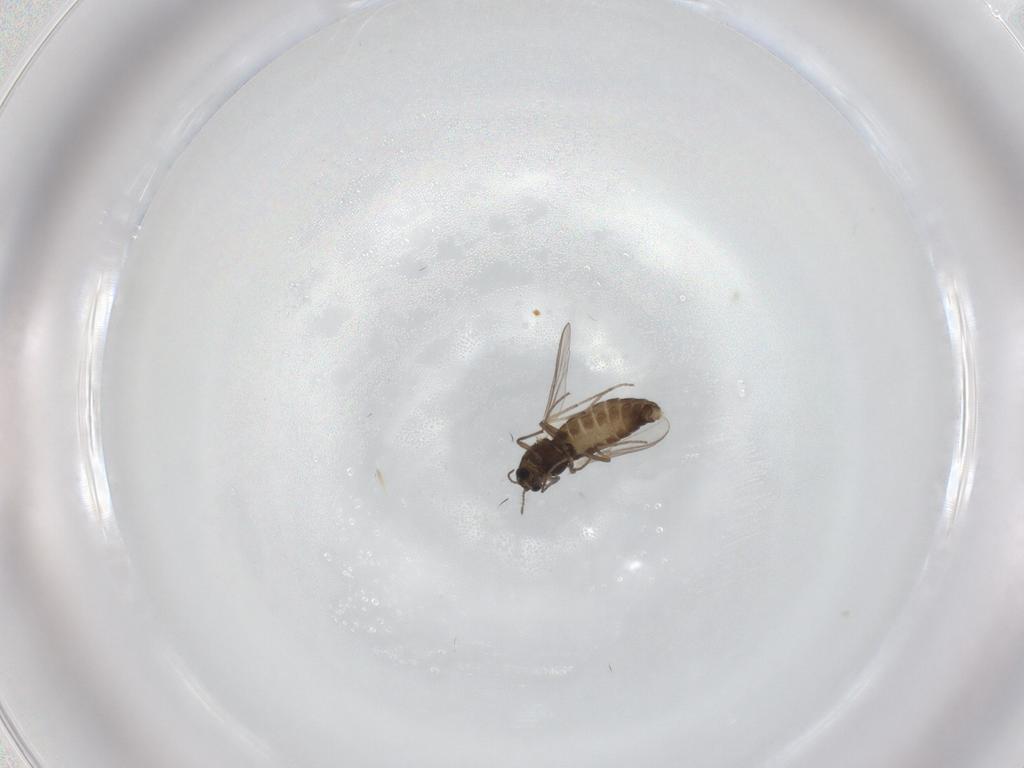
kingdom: Animalia
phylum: Arthropoda
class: Insecta
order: Diptera
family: Chironomidae
